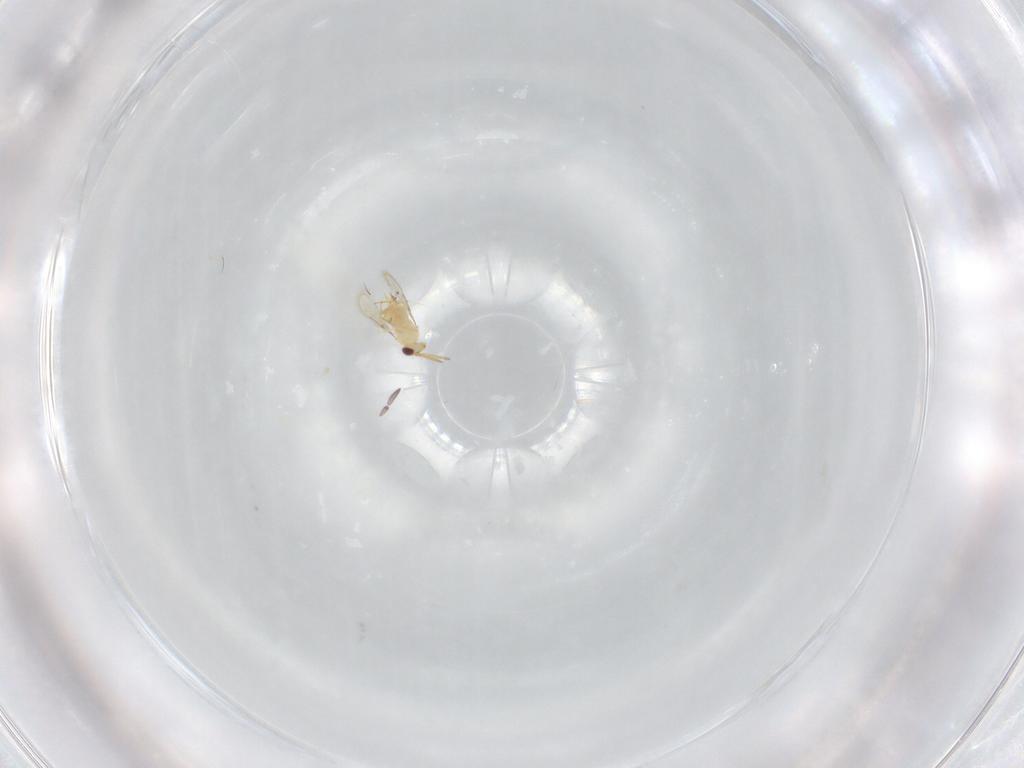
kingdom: Animalia
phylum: Arthropoda
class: Insecta
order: Hymenoptera
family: Aphelinidae
